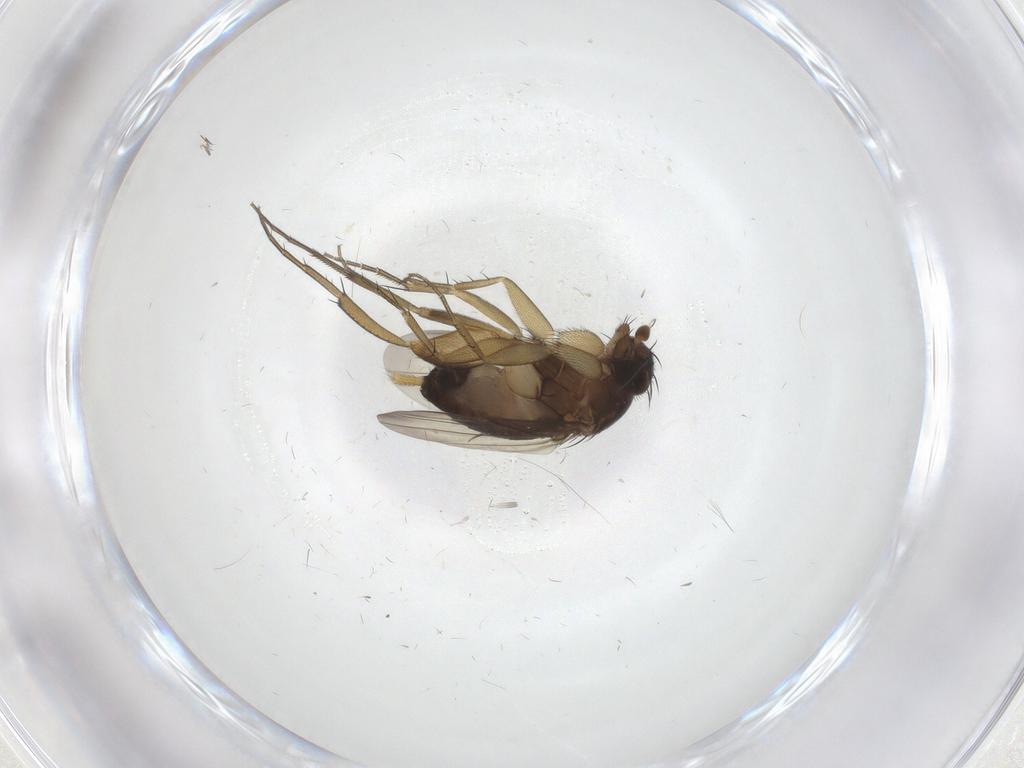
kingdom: Animalia
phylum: Arthropoda
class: Insecta
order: Diptera
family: Phoridae
